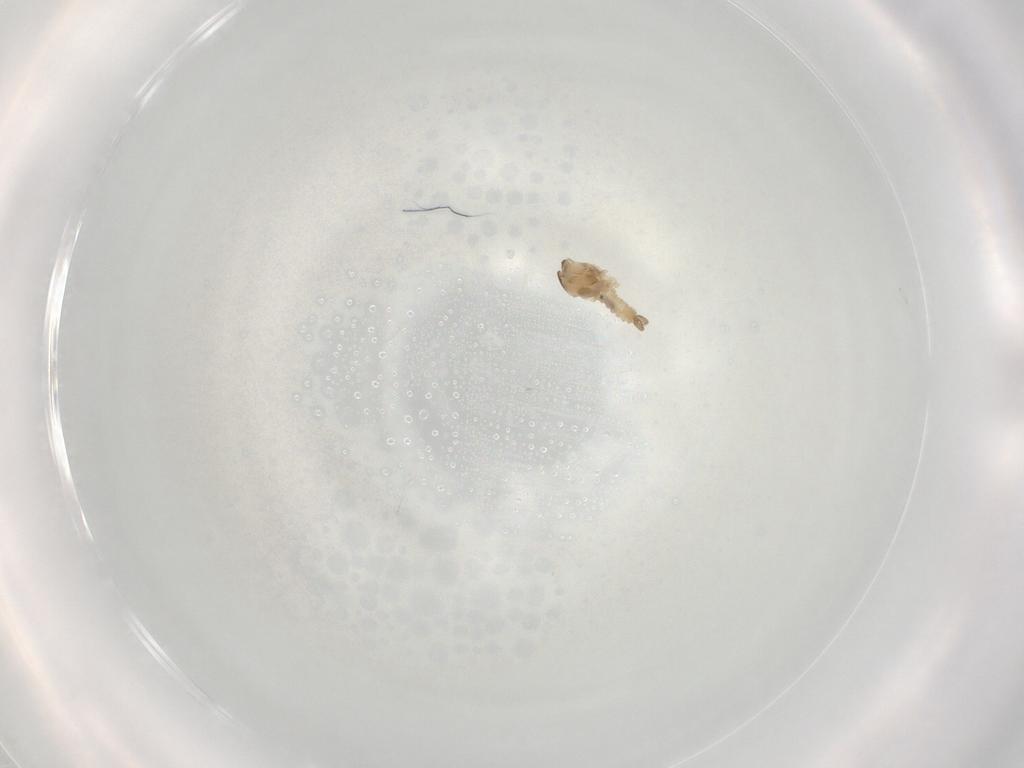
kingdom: Animalia
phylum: Arthropoda
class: Insecta
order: Diptera
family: Cecidomyiidae
